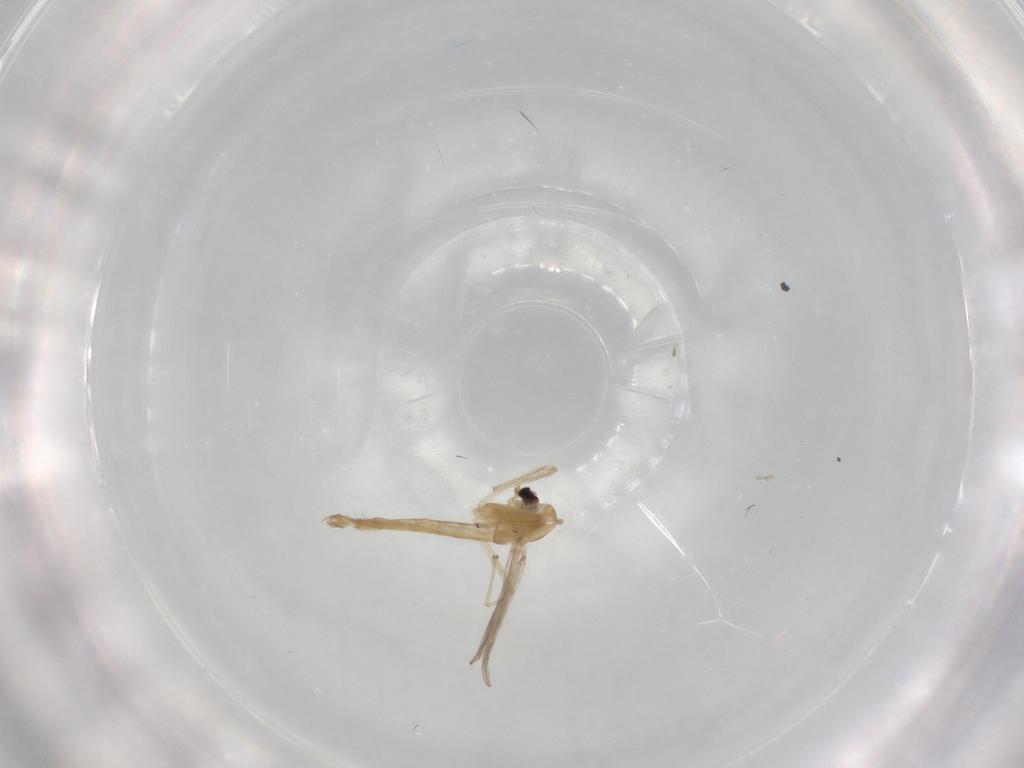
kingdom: Animalia
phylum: Arthropoda
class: Insecta
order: Diptera
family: Chironomidae
